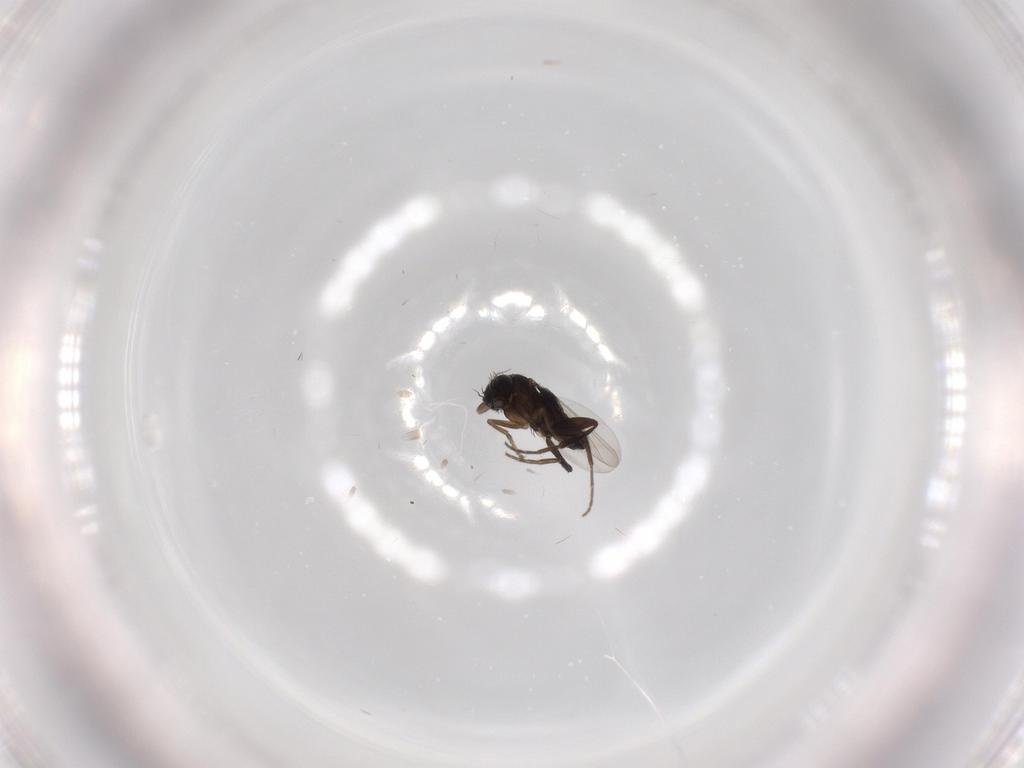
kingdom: Animalia
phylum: Arthropoda
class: Insecta
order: Diptera
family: Phoridae
